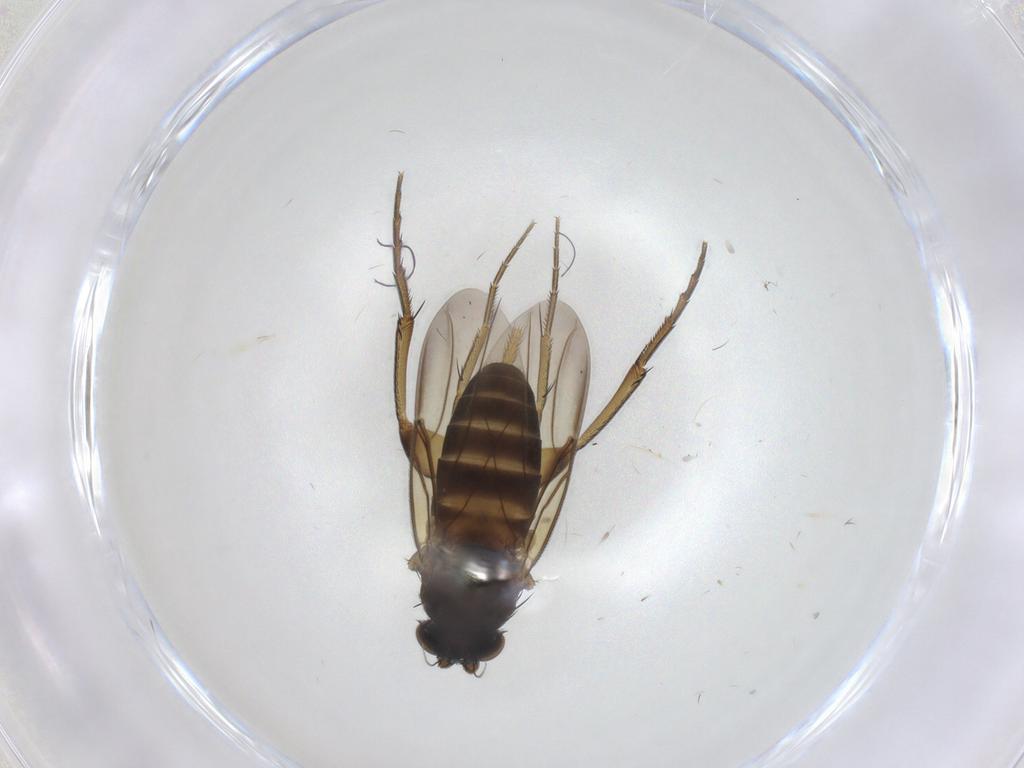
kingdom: Animalia
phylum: Arthropoda
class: Insecta
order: Diptera
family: Phoridae
